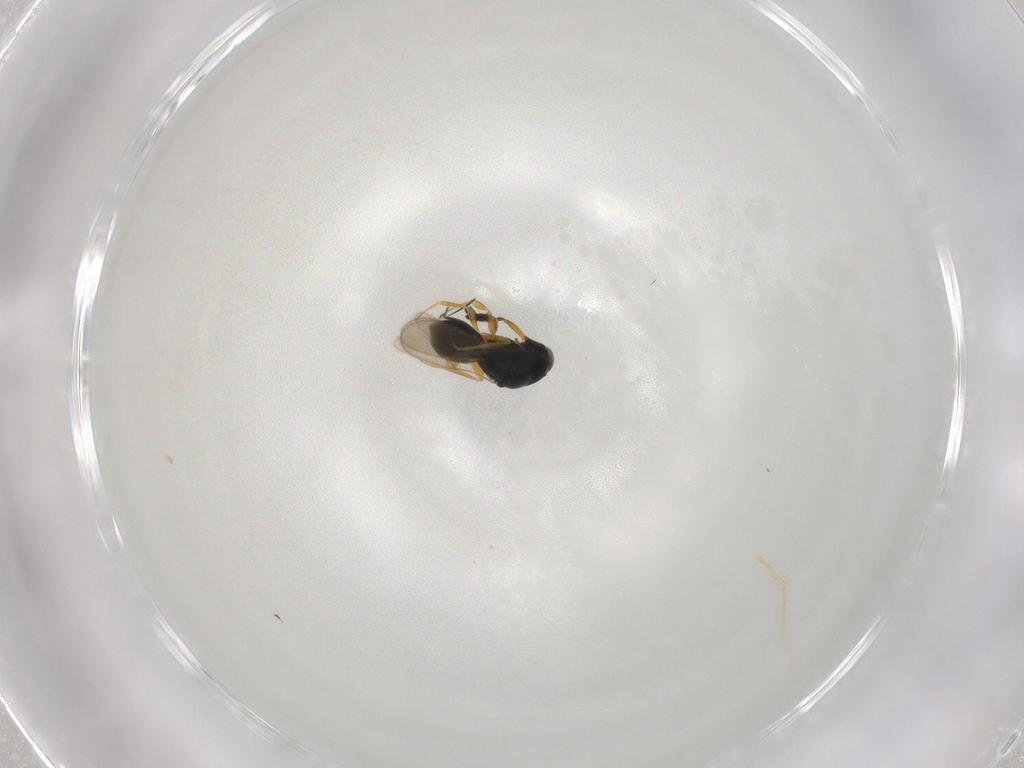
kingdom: Animalia
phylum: Arthropoda
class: Insecta
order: Hymenoptera
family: Scelionidae
